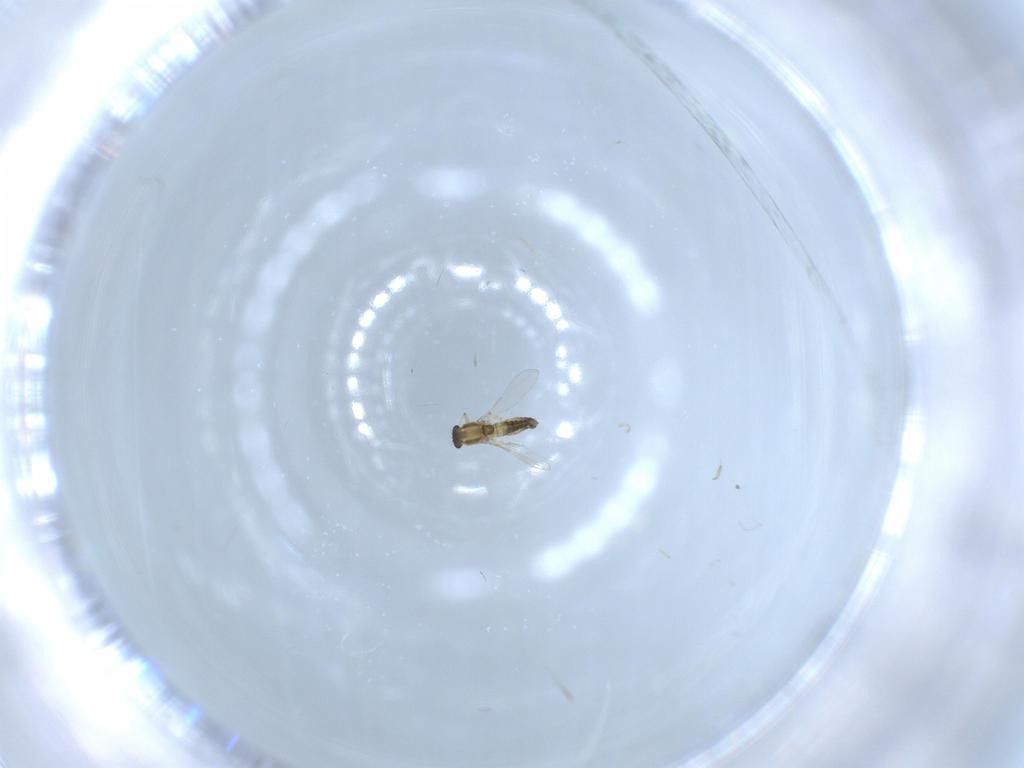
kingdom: Animalia
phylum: Arthropoda
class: Insecta
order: Diptera
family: Chironomidae
